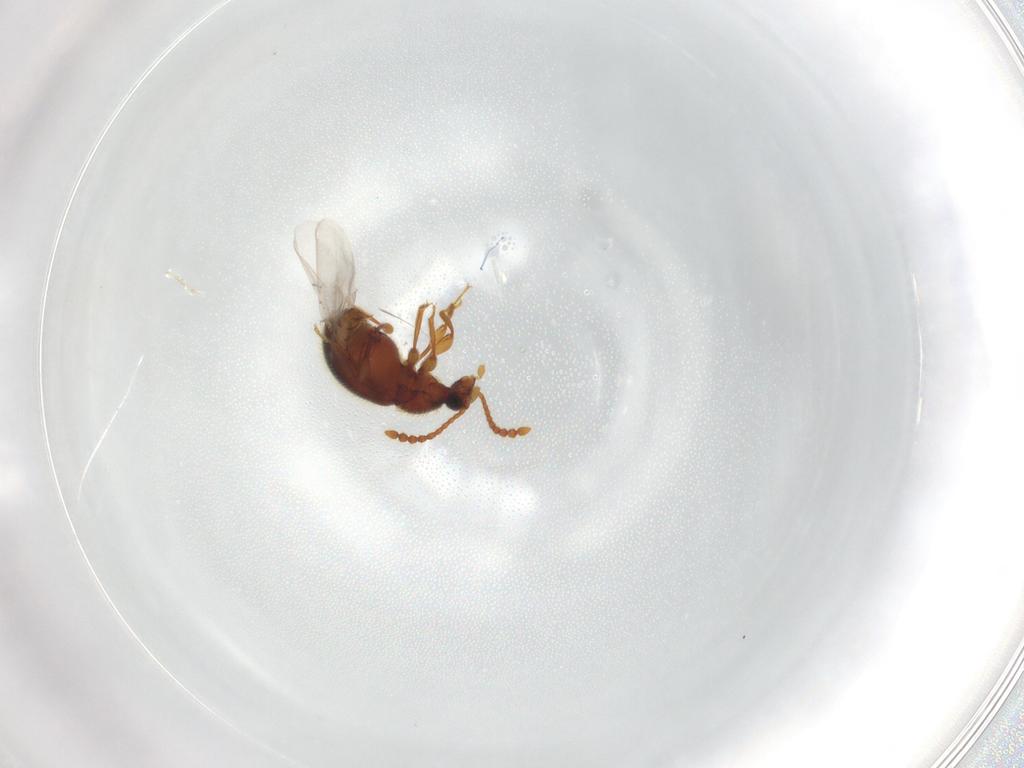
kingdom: Animalia
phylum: Arthropoda
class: Insecta
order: Coleoptera
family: Staphylinidae
